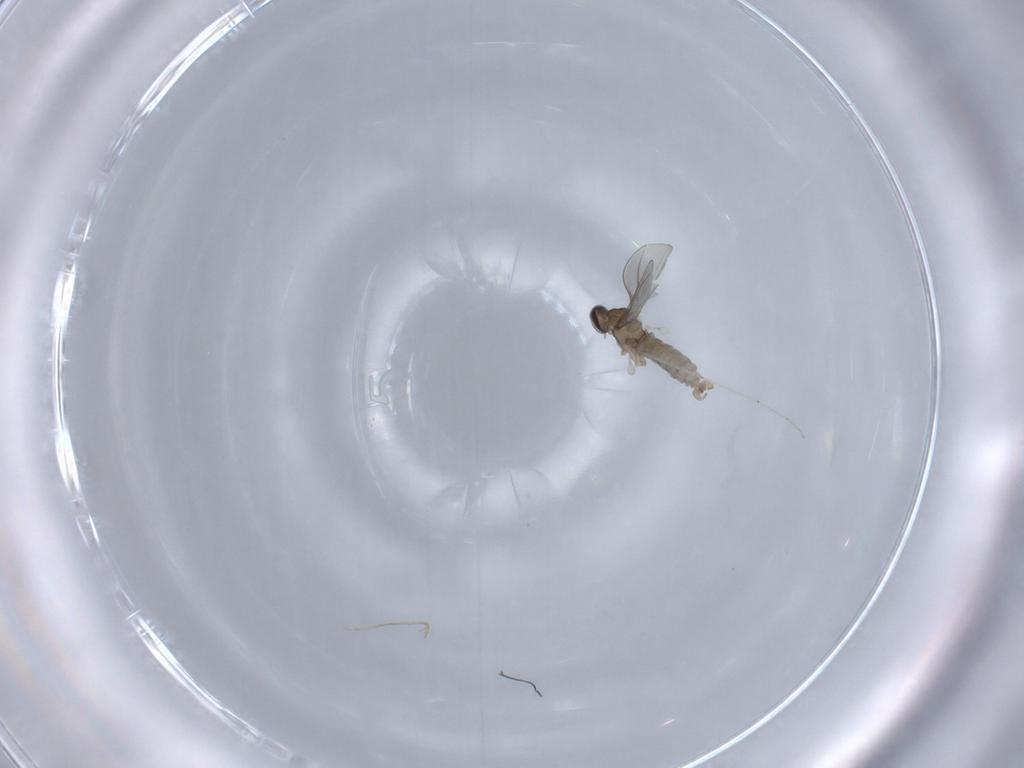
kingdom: Animalia
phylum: Arthropoda
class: Insecta
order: Diptera
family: Cecidomyiidae
